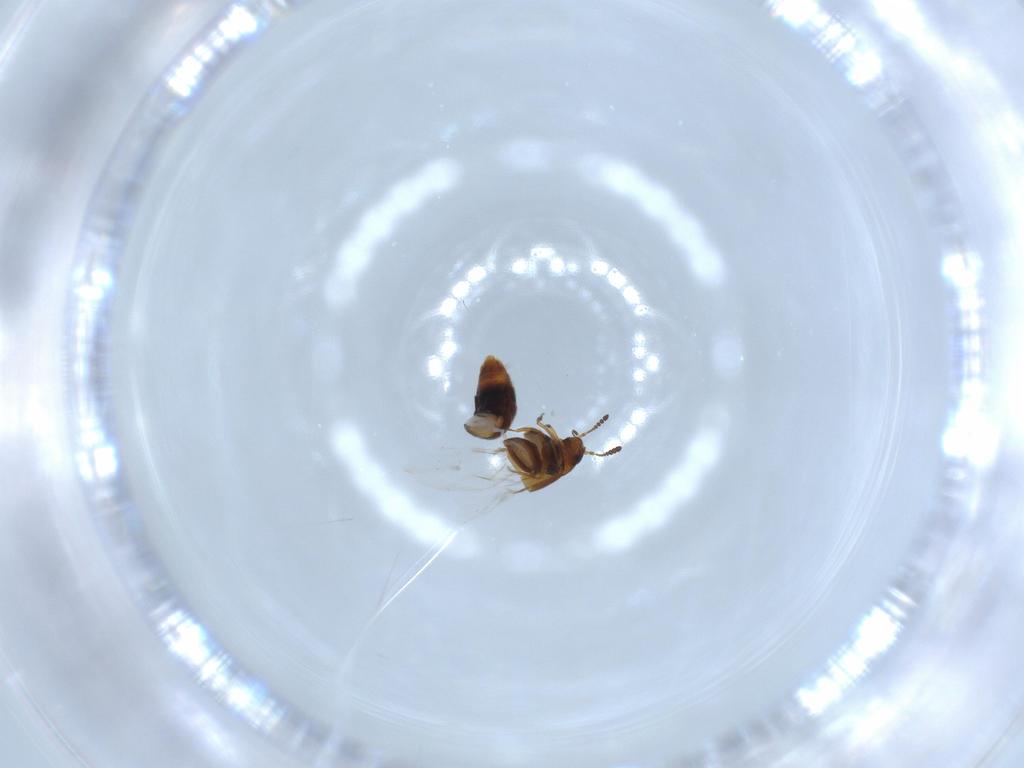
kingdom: Animalia
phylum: Arthropoda
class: Insecta
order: Coleoptera
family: Staphylinidae
